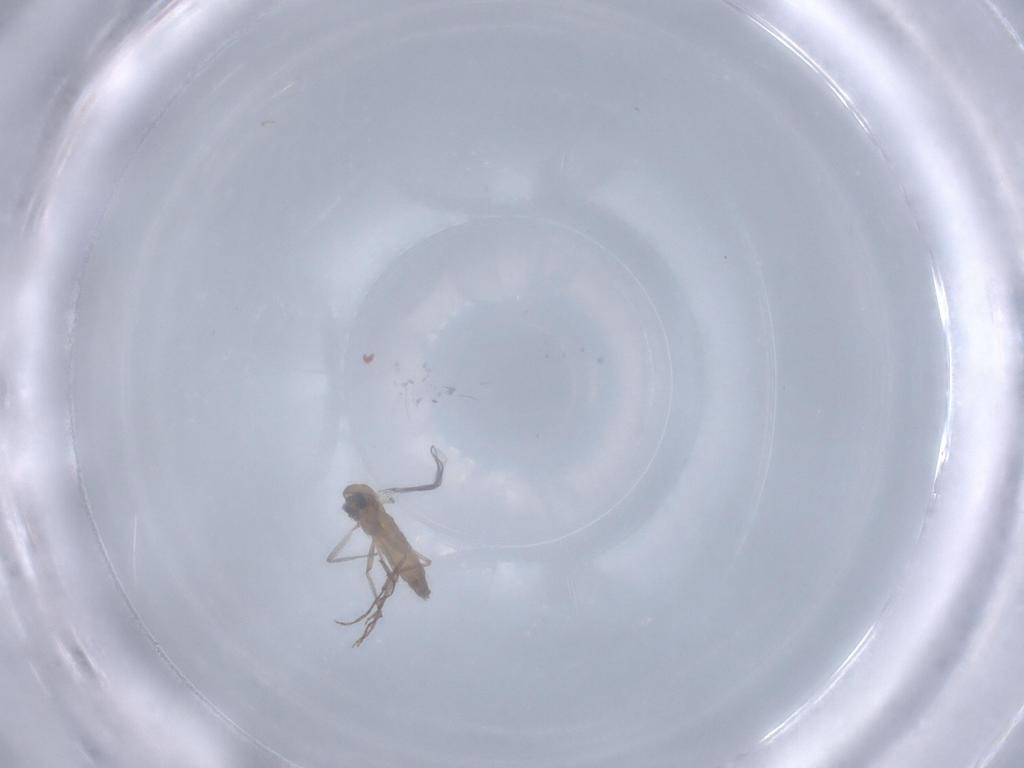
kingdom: Animalia
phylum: Arthropoda
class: Insecta
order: Diptera
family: Chironomidae
